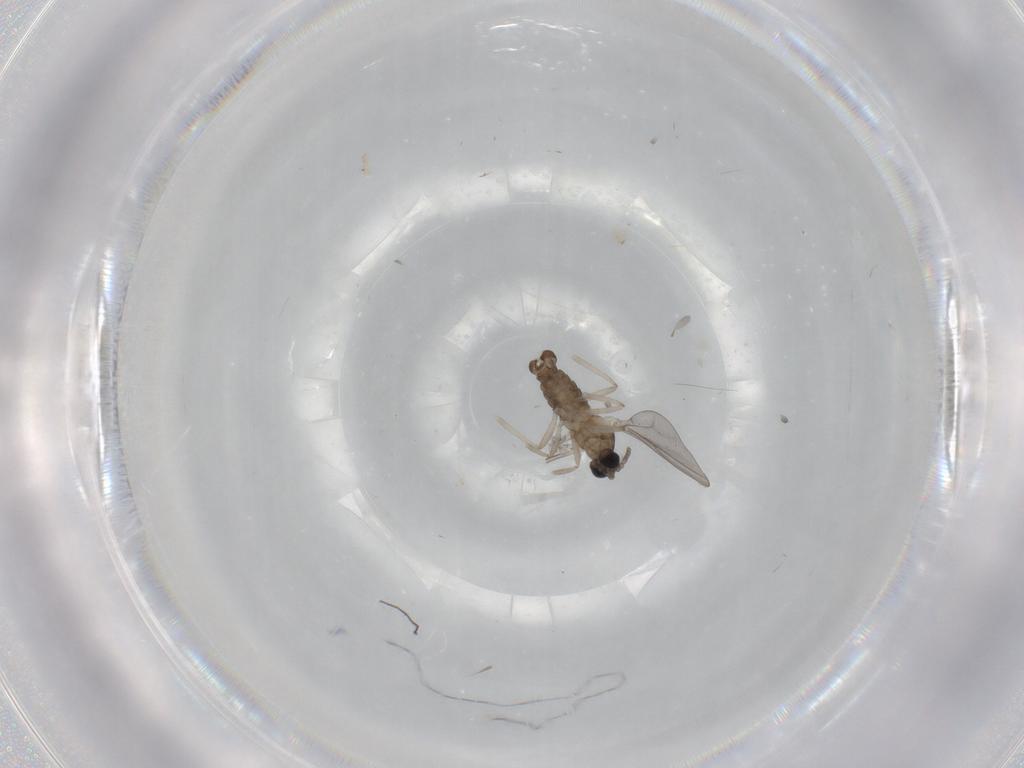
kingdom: Animalia
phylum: Arthropoda
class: Insecta
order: Diptera
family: Cecidomyiidae
